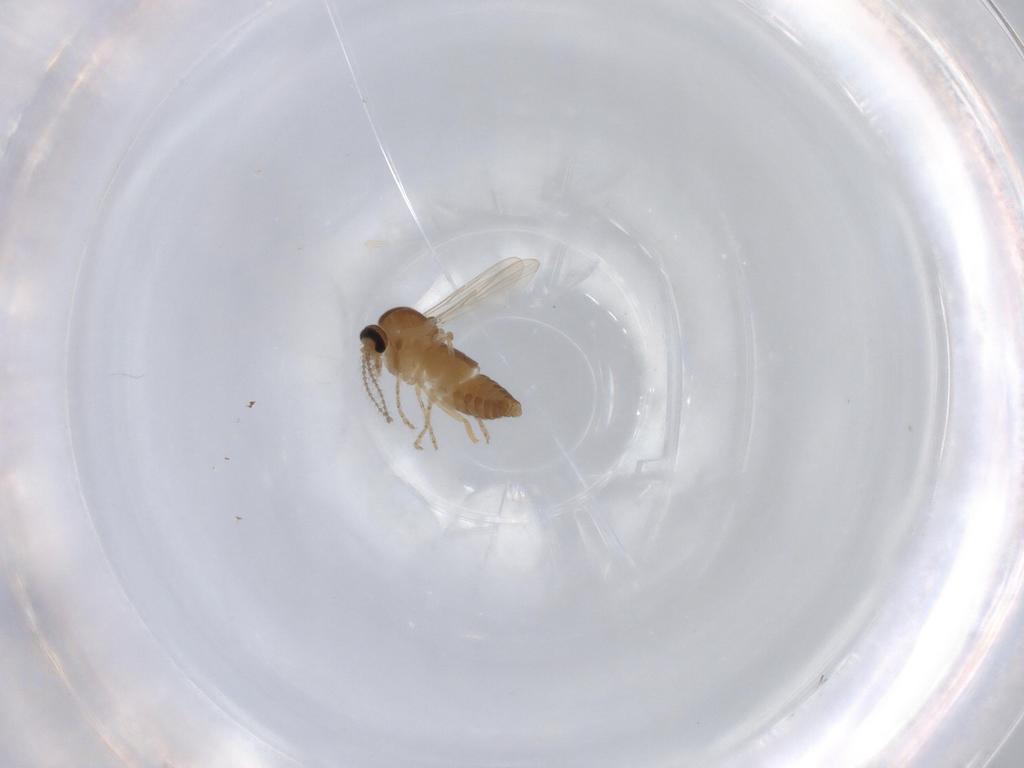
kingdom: Animalia
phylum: Arthropoda
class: Insecta
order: Diptera
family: Ceratopogonidae
